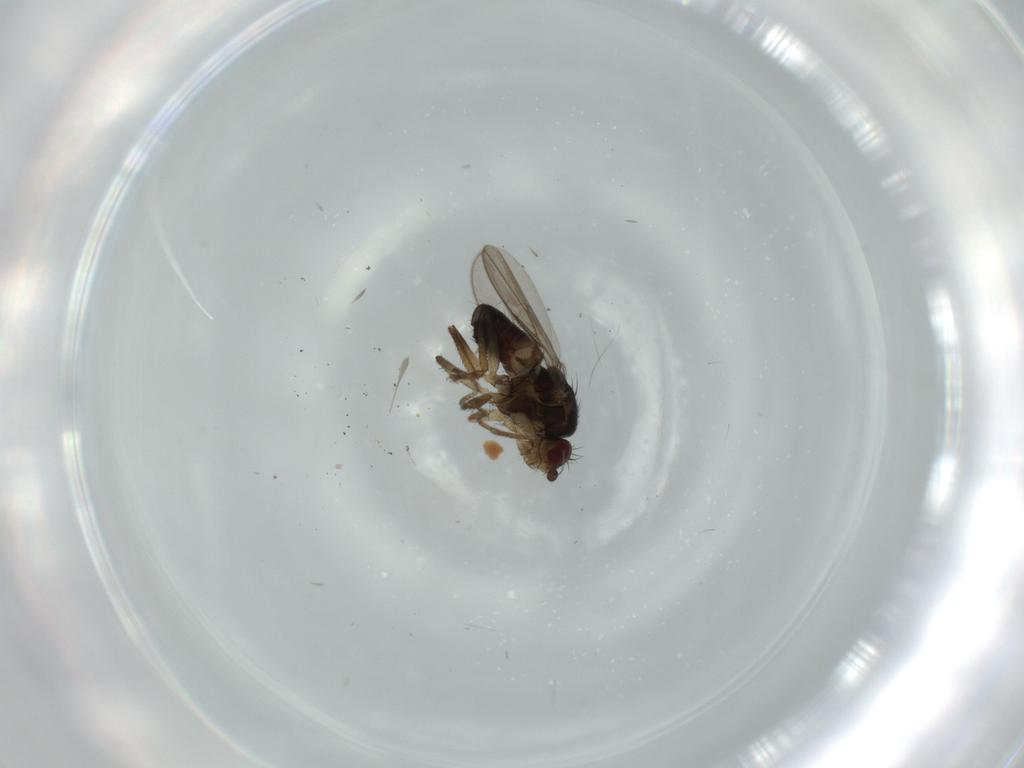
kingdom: Animalia
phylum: Arthropoda
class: Insecta
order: Diptera
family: Sphaeroceridae
